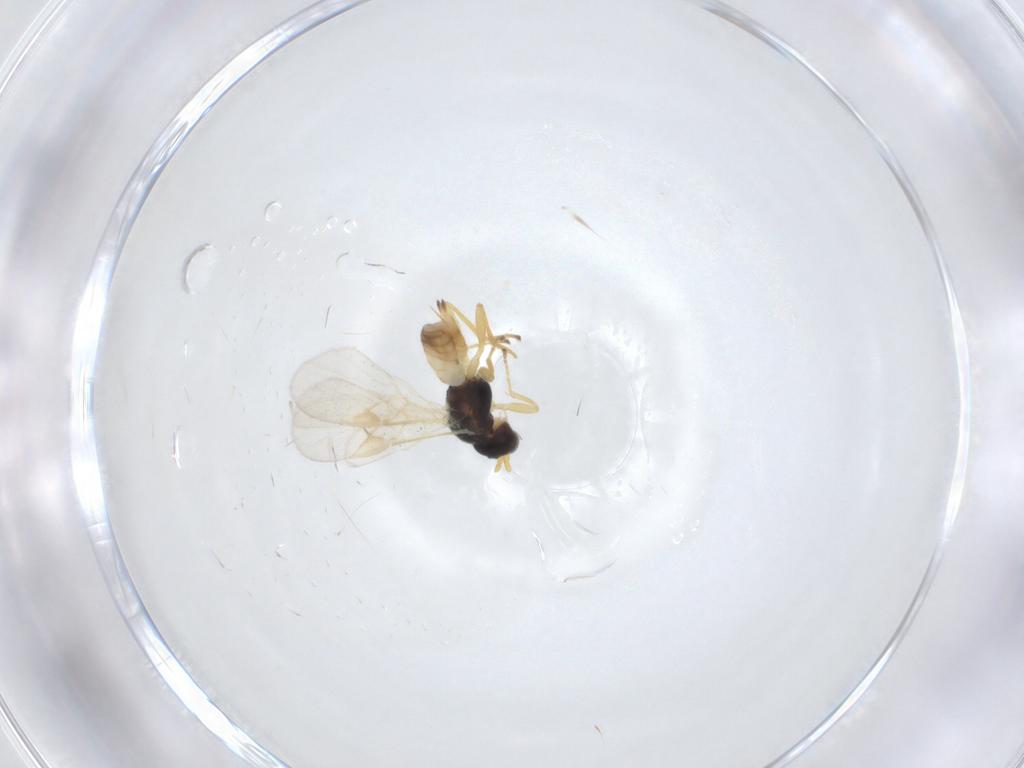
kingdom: Animalia
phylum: Arthropoda
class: Insecta
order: Hymenoptera
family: Braconidae
